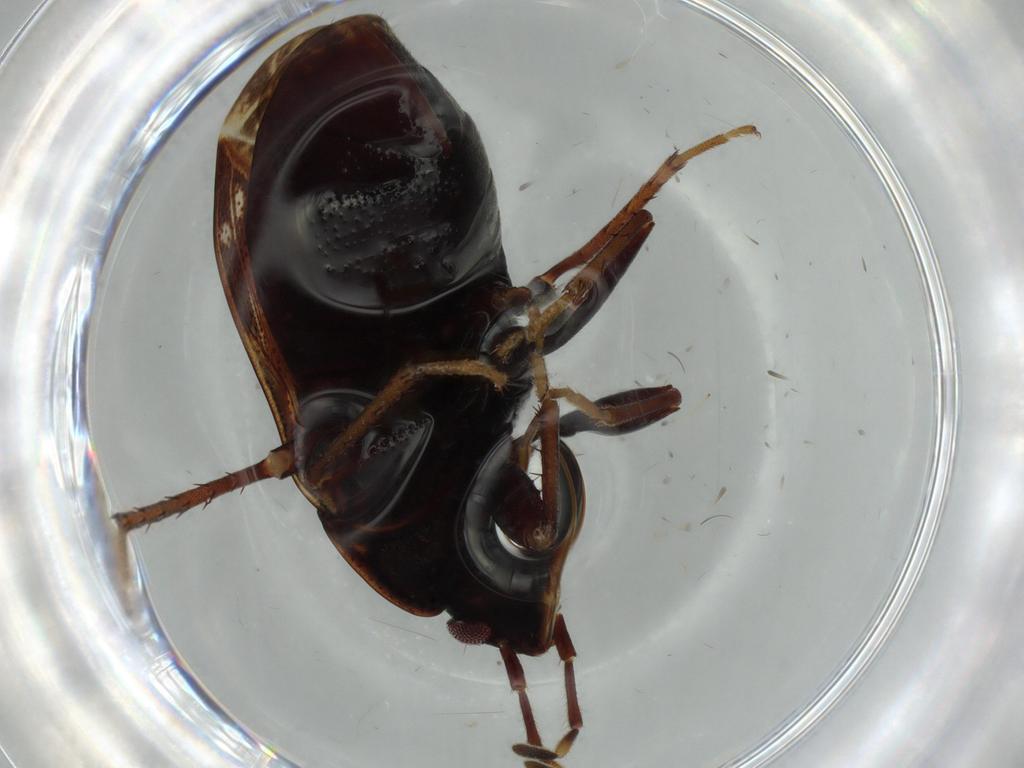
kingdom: Animalia
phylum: Arthropoda
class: Insecta
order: Hemiptera
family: Rhyparochromidae
